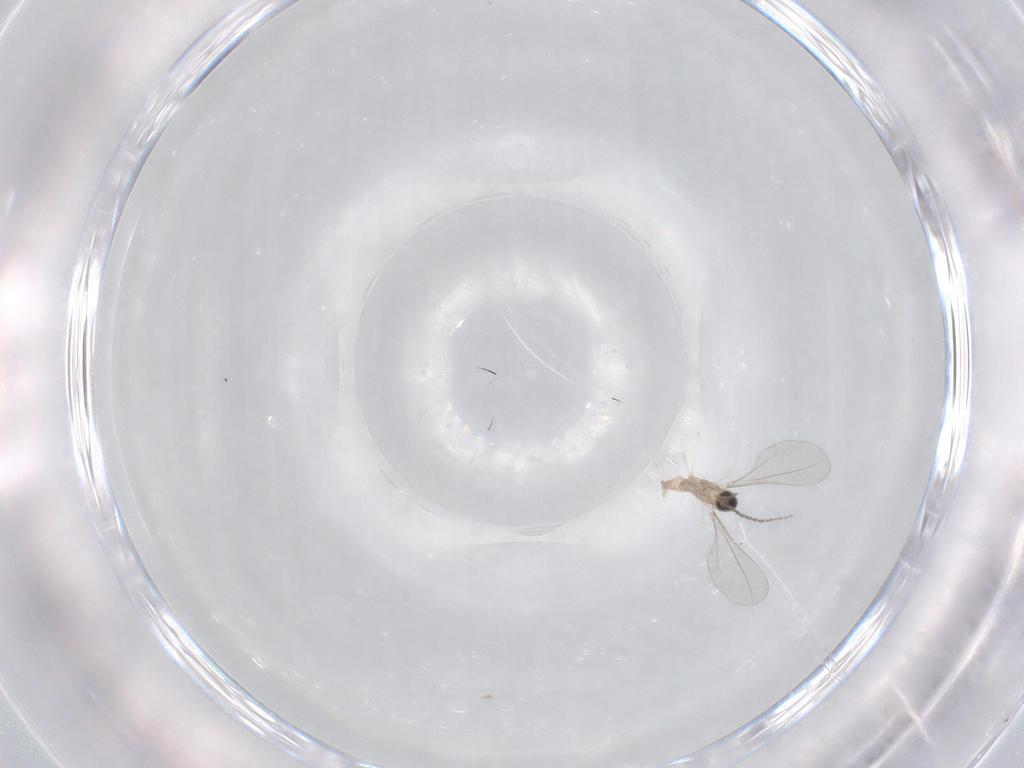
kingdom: Animalia
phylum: Arthropoda
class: Insecta
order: Diptera
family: Cecidomyiidae
